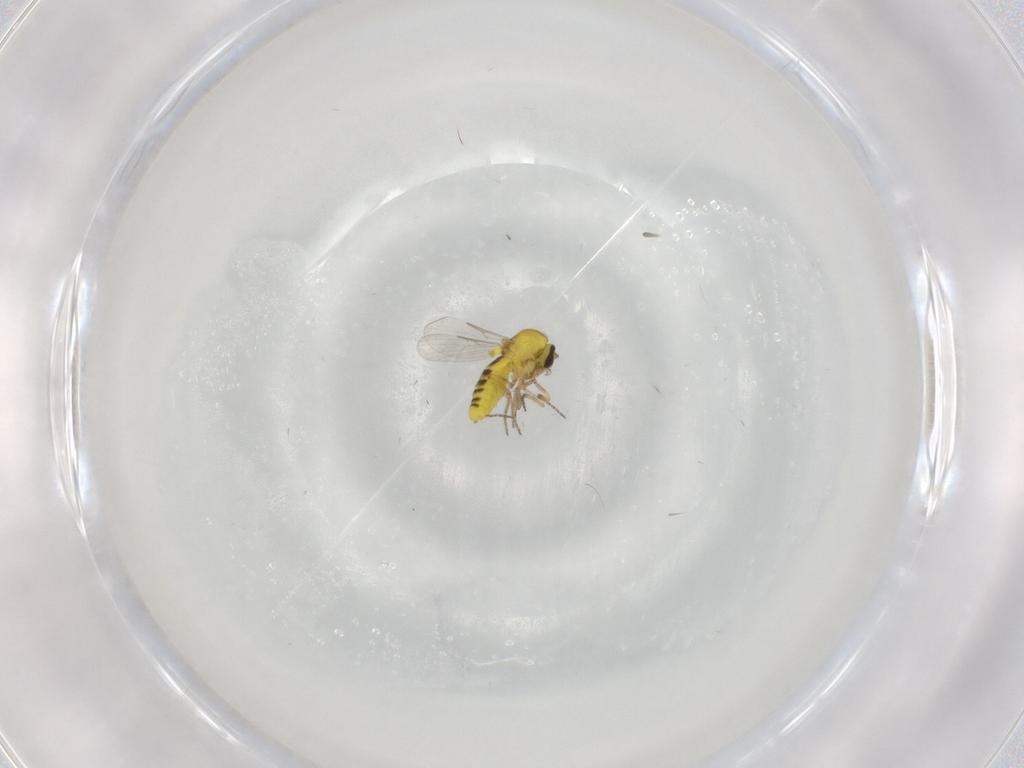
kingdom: Animalia
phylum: Arthropoda
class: Insecta
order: Diptera
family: Ceratopogonidae
